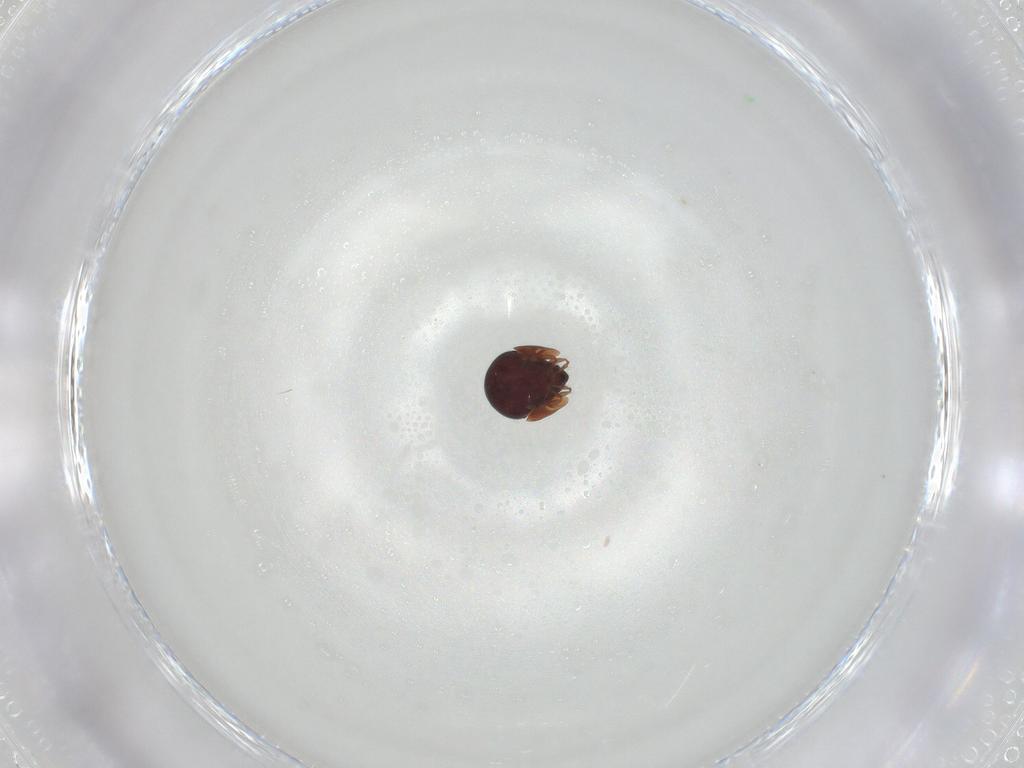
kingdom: Animalia
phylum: Arthropoda
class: Arachnida
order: Sarcoptiformes
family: Galumnidae
